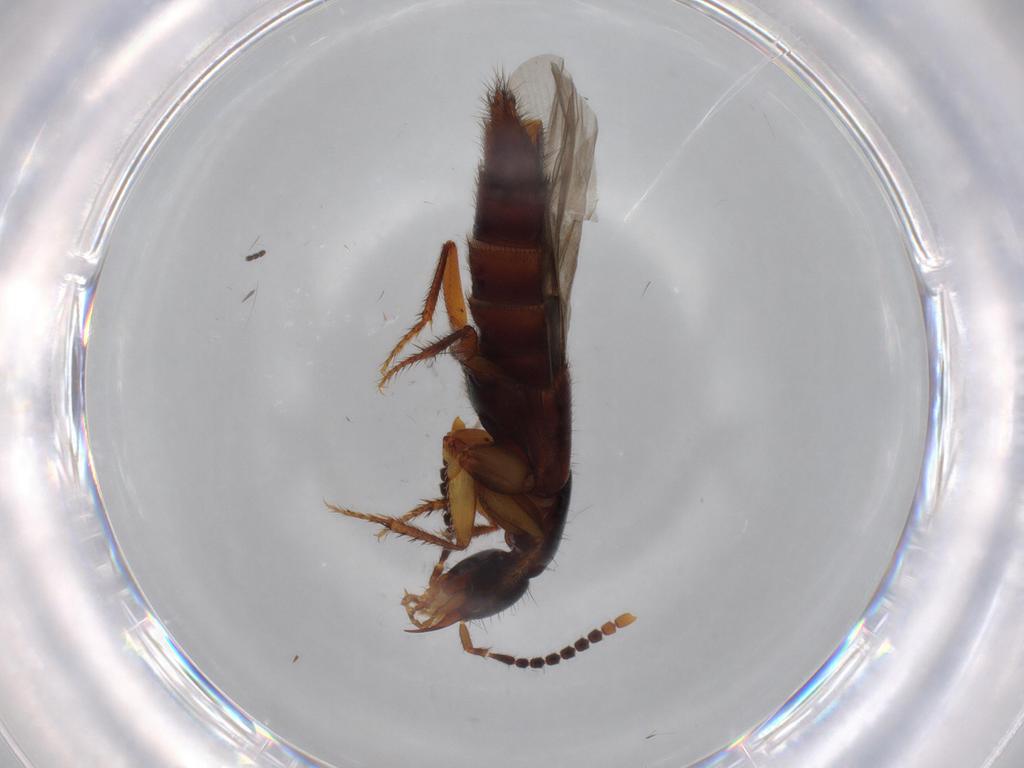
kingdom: Animalia
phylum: Arthropoda
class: Insecta
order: Coleoptera
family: Staphylinidae
